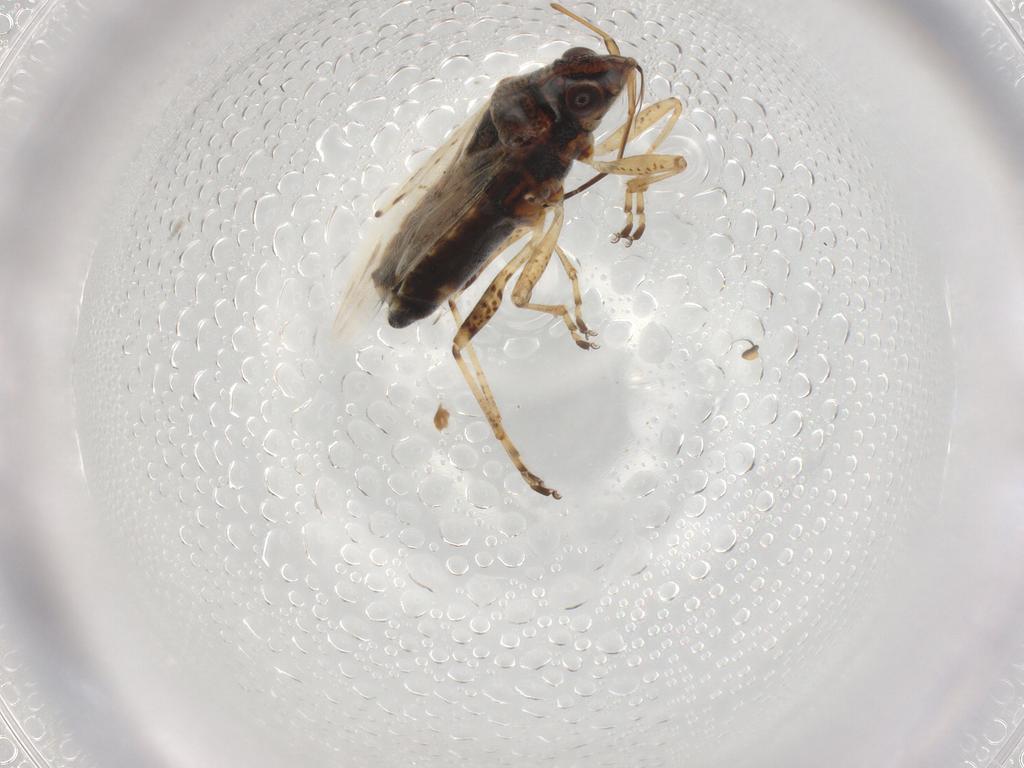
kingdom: Animalia
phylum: Arthropoda
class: Insecta
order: Hemiptera
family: Lygaeidae
